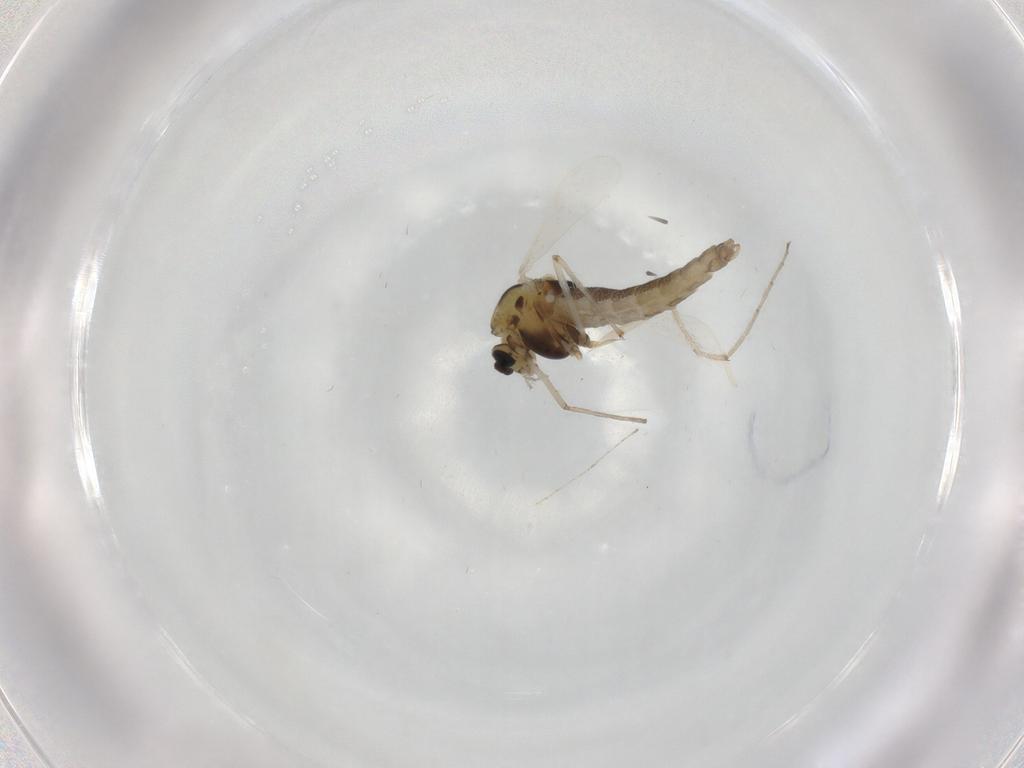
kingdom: Animalia
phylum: Arthropoda
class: Insecta
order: Diptera
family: Chironomidae
